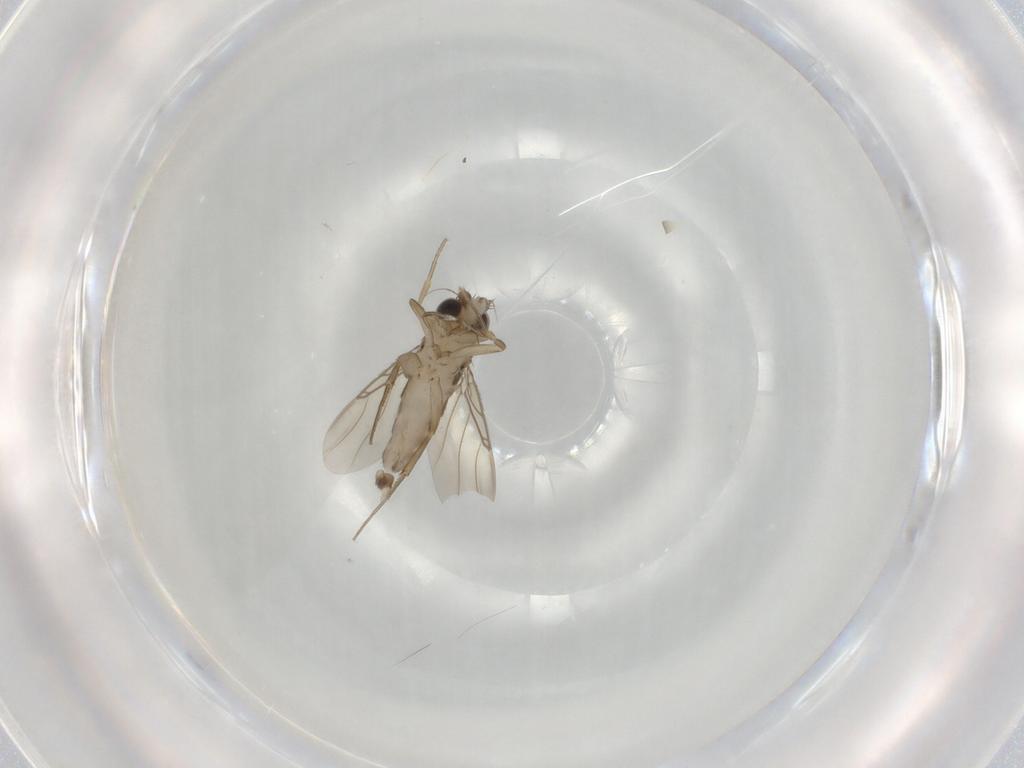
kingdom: Animalia
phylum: Arthropoda
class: Insecta
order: Diptera
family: Phoridae
